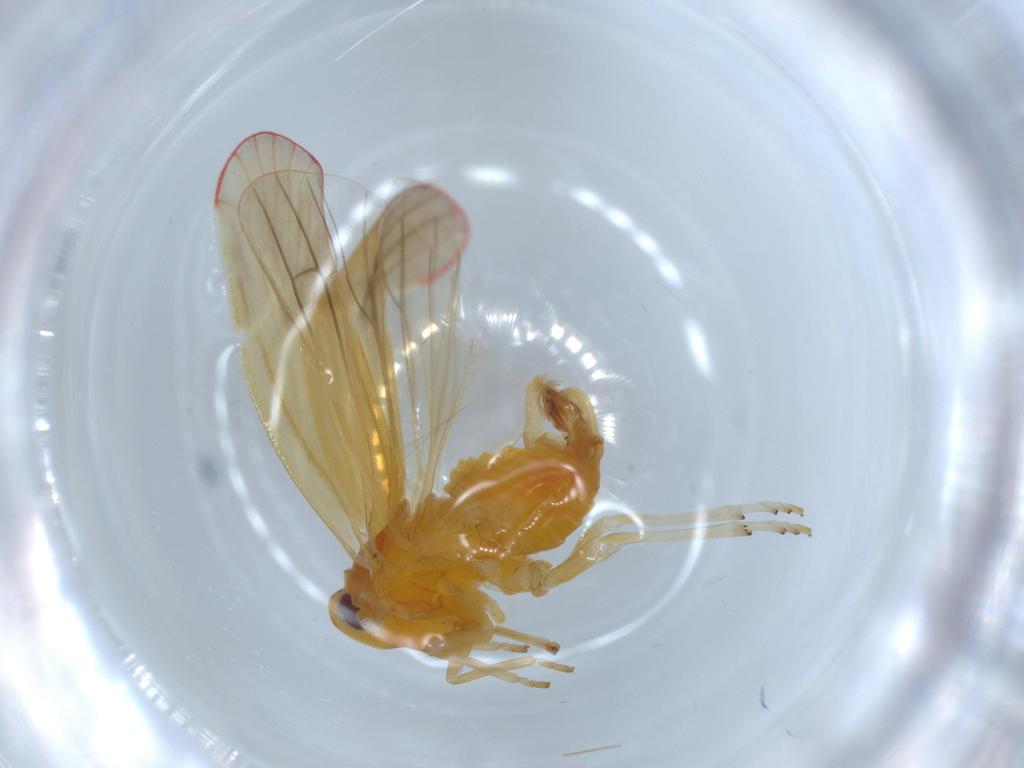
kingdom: Animalia
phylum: Arthropoda
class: Insecta
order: Hemiptera
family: Derbidae
